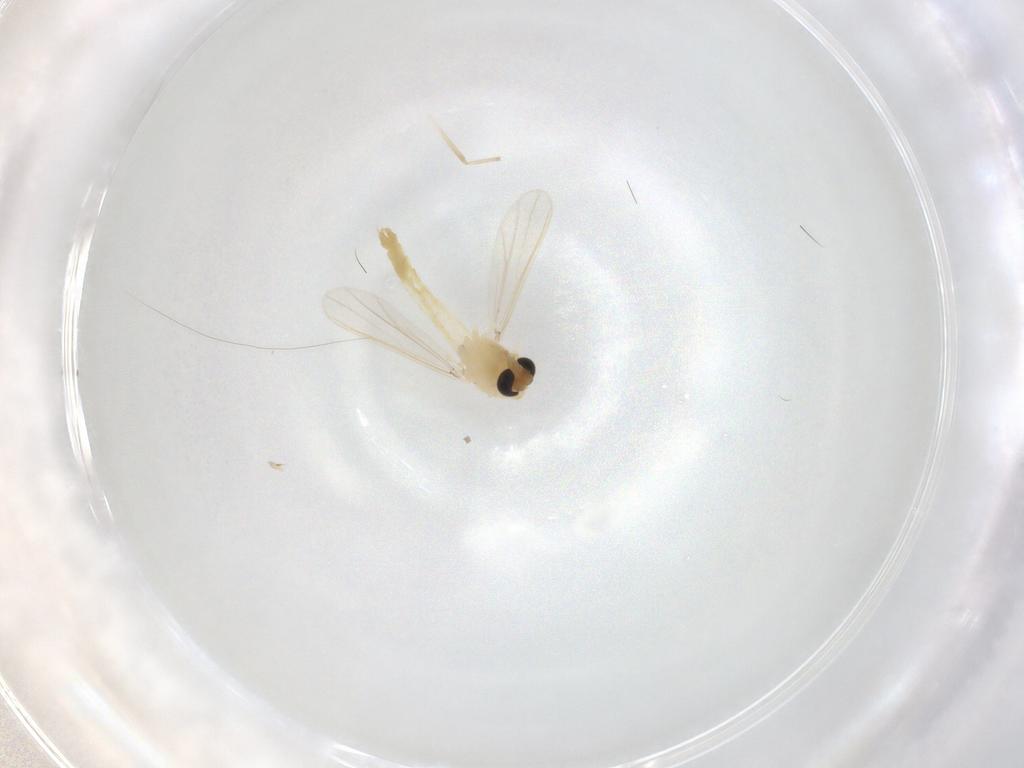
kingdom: Animalia
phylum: Arthropoda
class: Insecta
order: Diptera
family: Chironomidae
